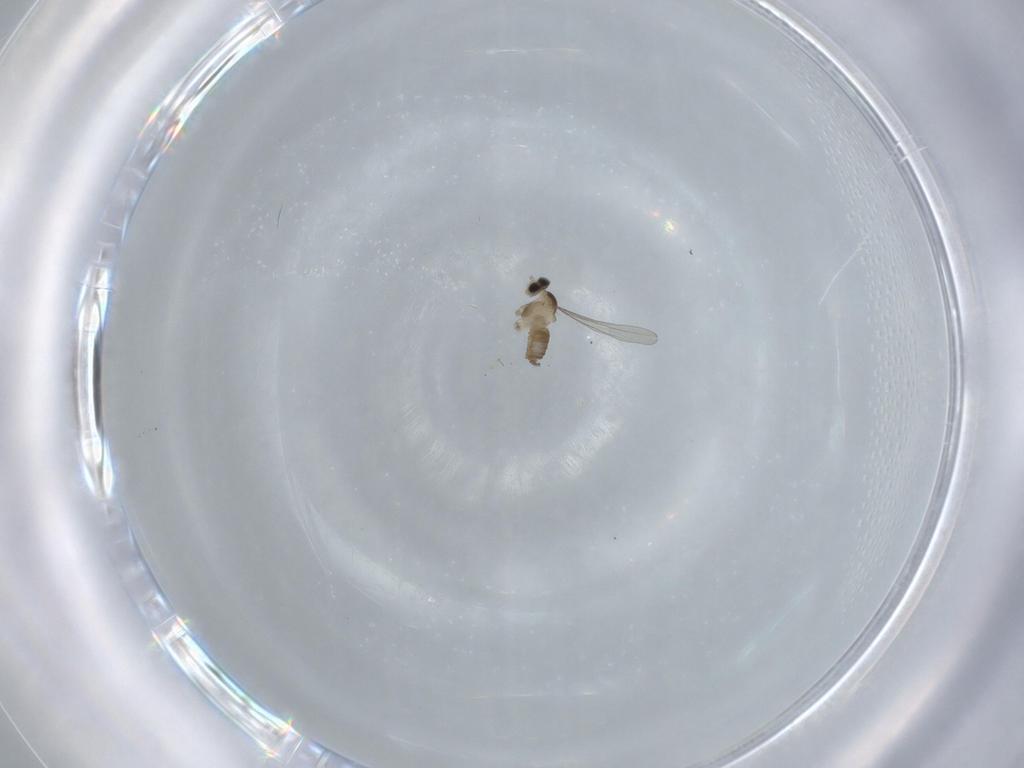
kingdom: Animalia
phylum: Arthropoda
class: Insecta
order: Diptera
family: Cecidomyiidae
